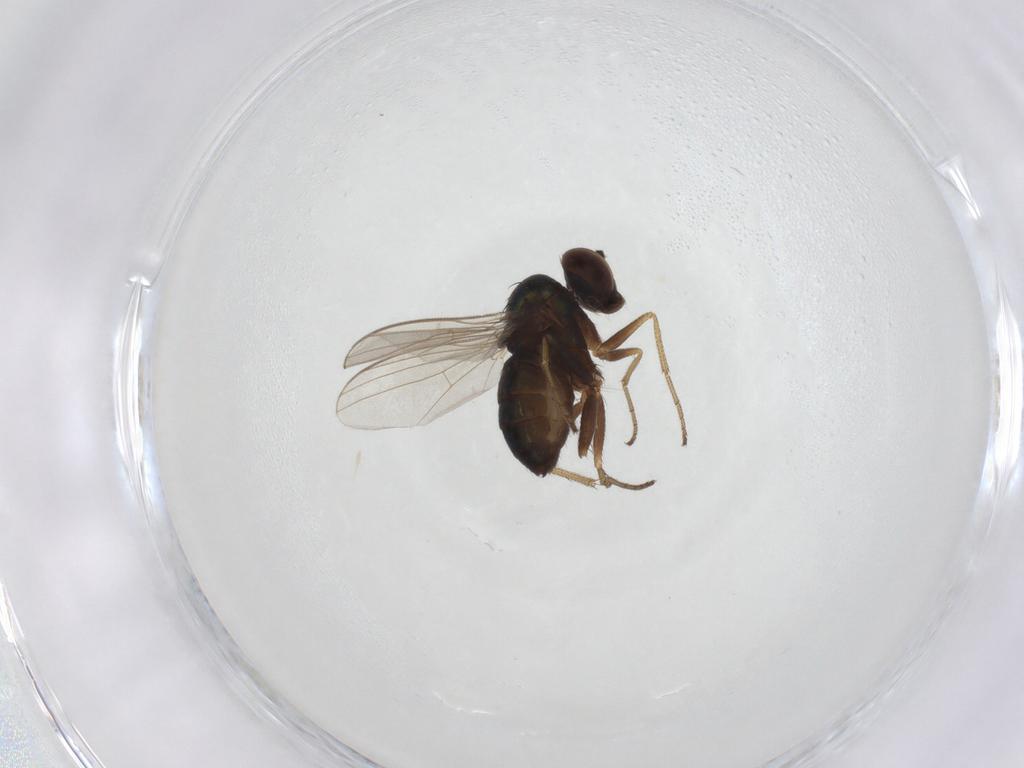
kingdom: Animalia
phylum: Arthropoda
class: Insecta
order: Diptera
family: Dolichopodidae
